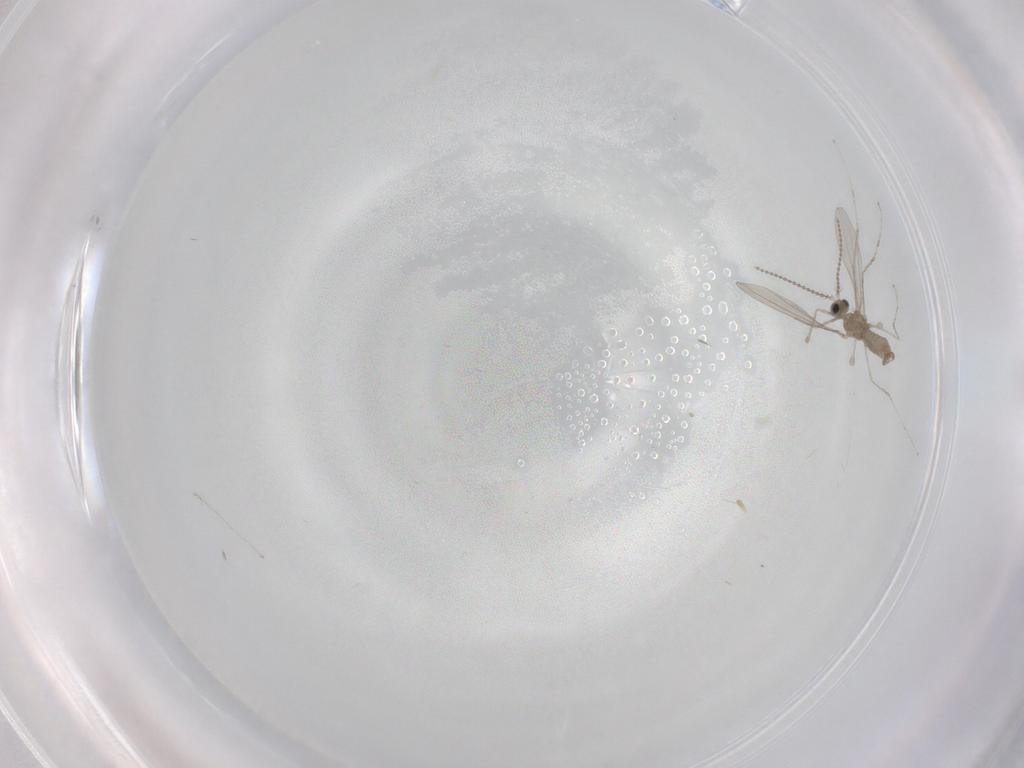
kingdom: Animalia
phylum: Arthropoda
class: Insecta
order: Diptera
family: Cecidomyiidae
